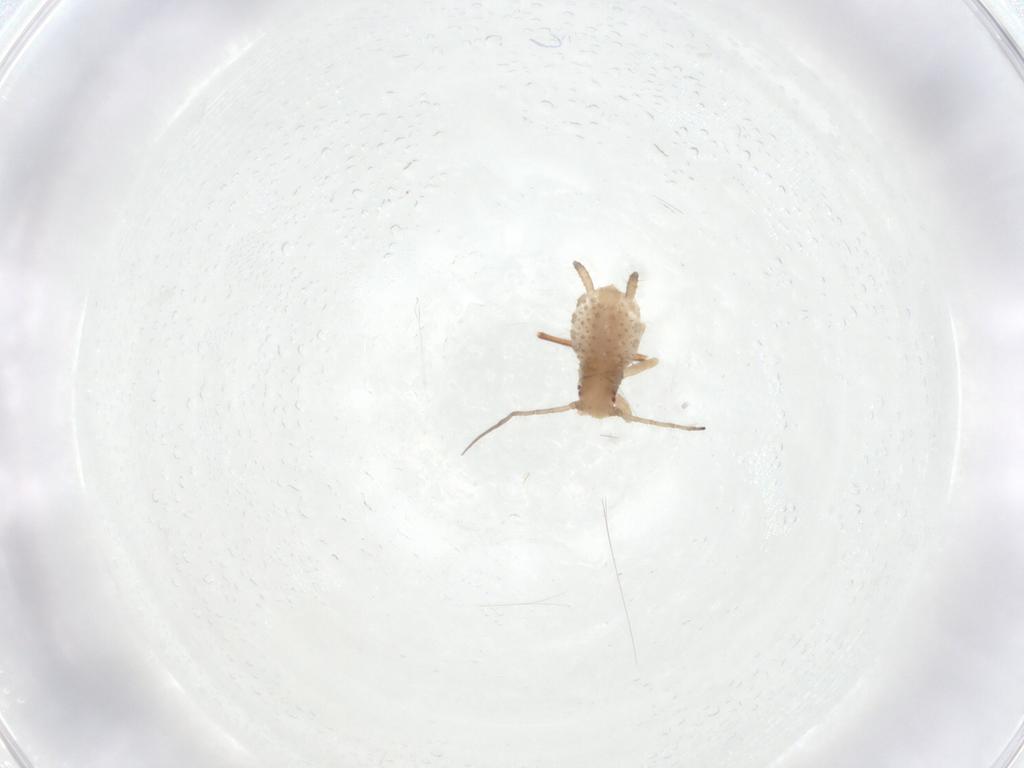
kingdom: Animalia
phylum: Arthropoda
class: Insecta
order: Hemiptera
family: Aphididae
